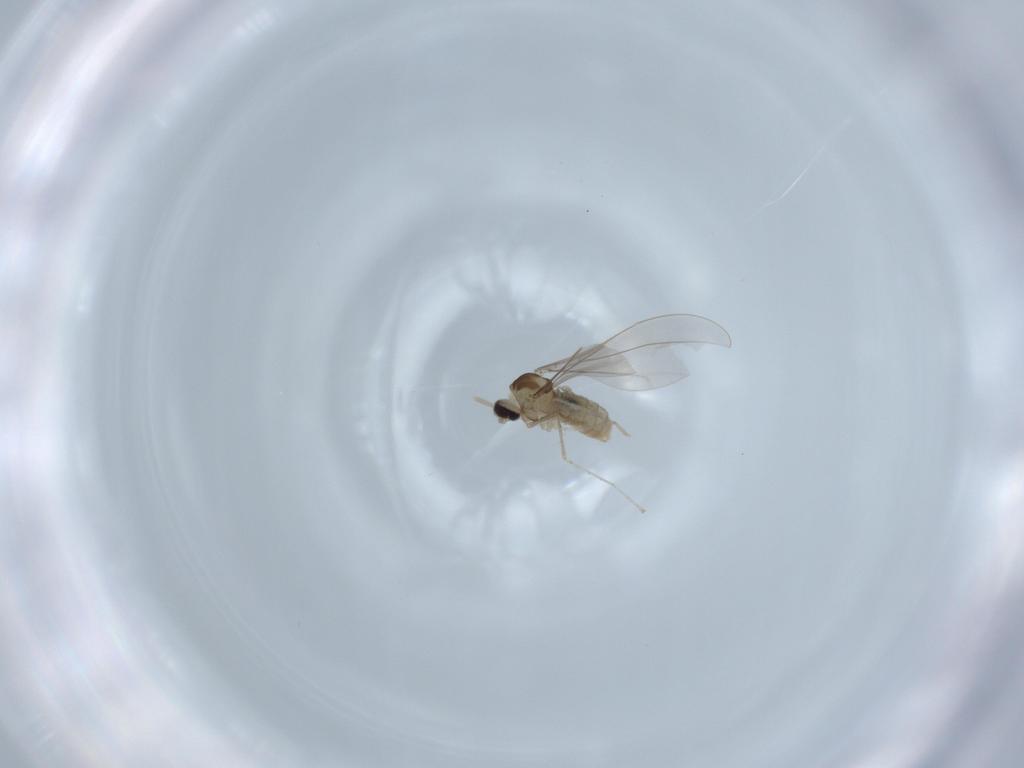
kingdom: Animalia
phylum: Arthropoda
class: Insecta
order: Diptera
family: Cecidomyiidae
